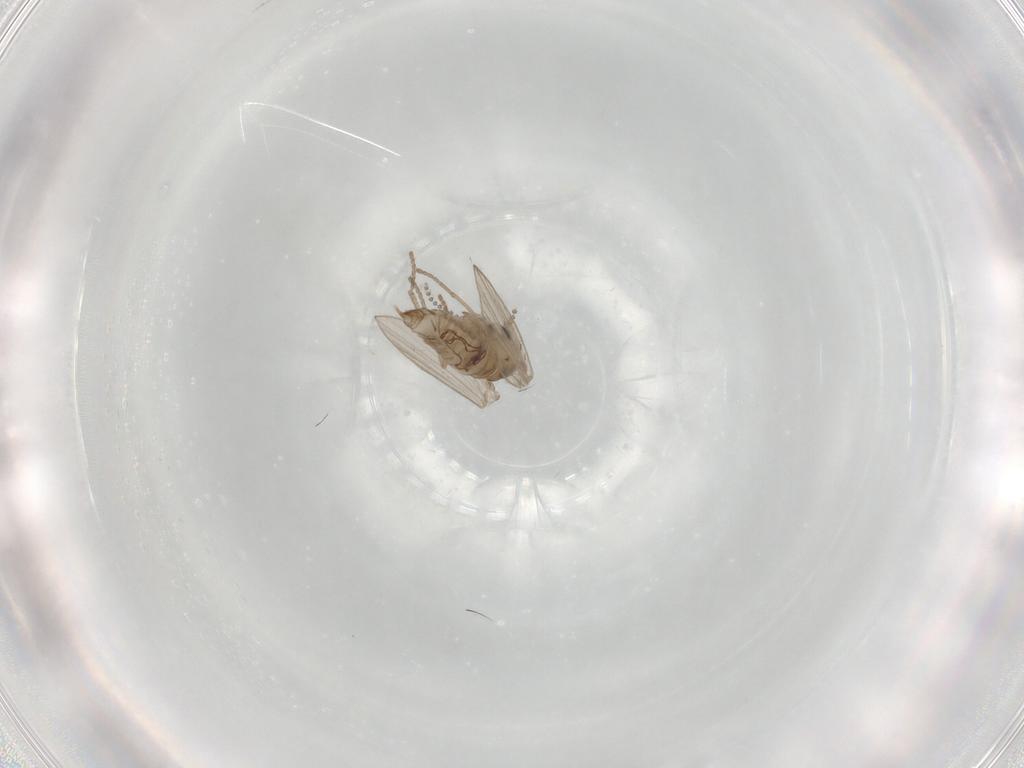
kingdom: Animalia
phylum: Arthropoda
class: Insecta
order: Diptera
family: Psychodidae
